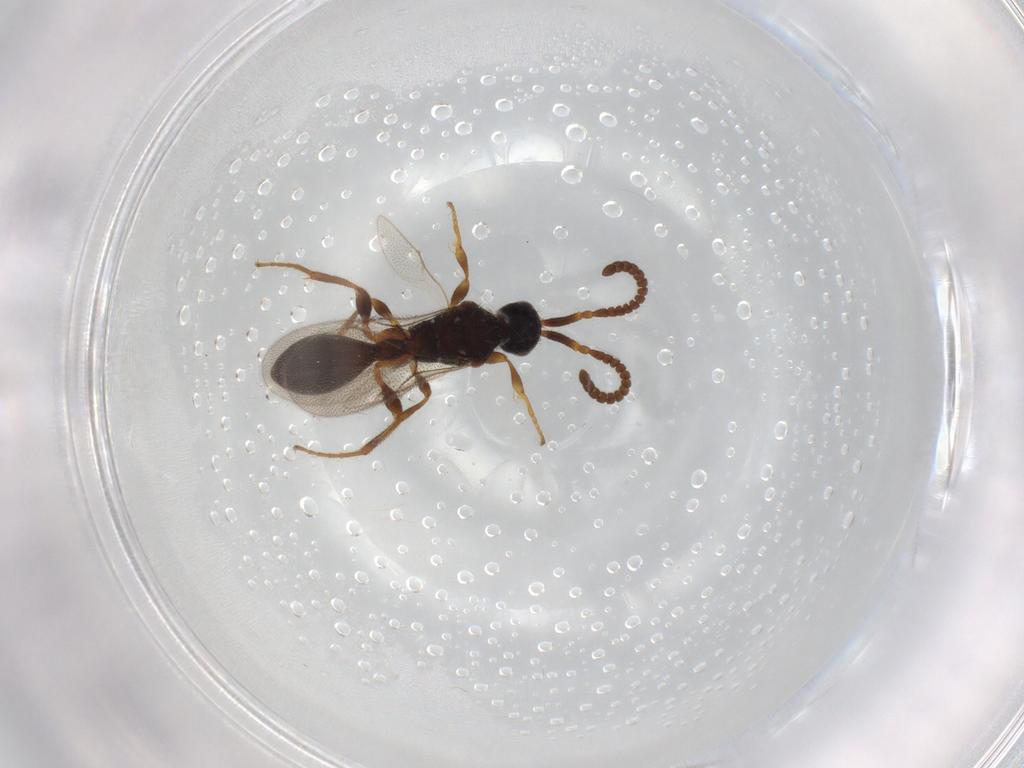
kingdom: Animalia
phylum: Arthropoda
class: Insecta
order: Hymenoptera
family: Diapriidae
